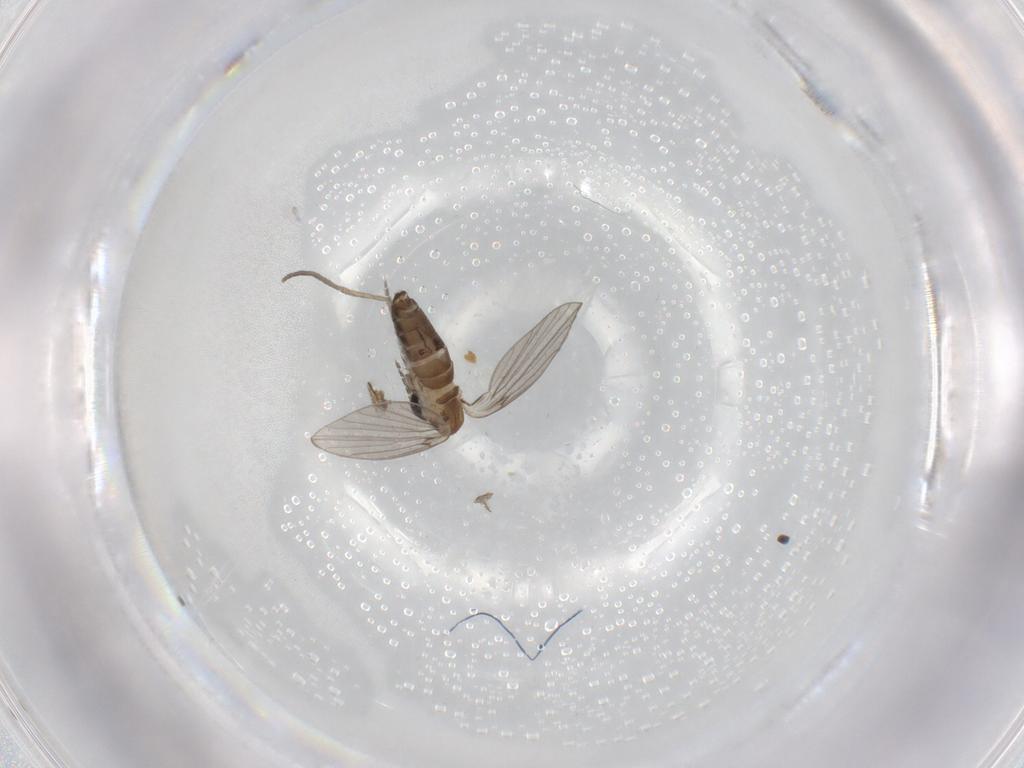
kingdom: Animalia
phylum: Arthropoda
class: Insecta
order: Diptera
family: Psychodidae
